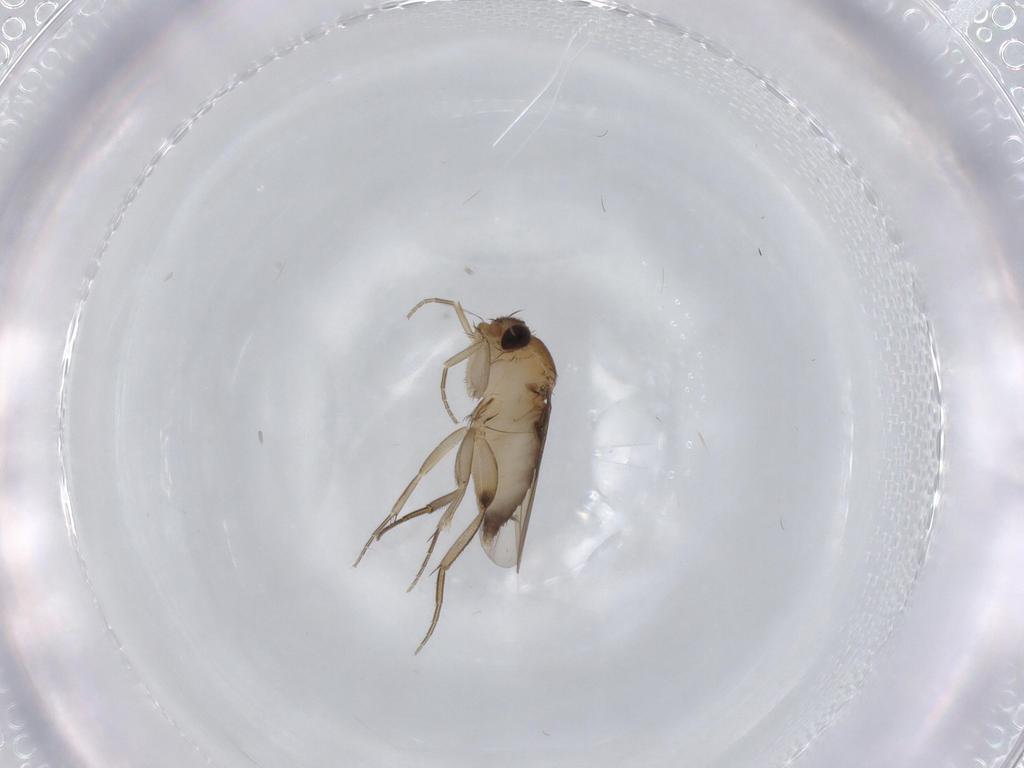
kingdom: Animalia
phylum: Arthropoda
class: Insecta
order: Diptera
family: Phoridae
